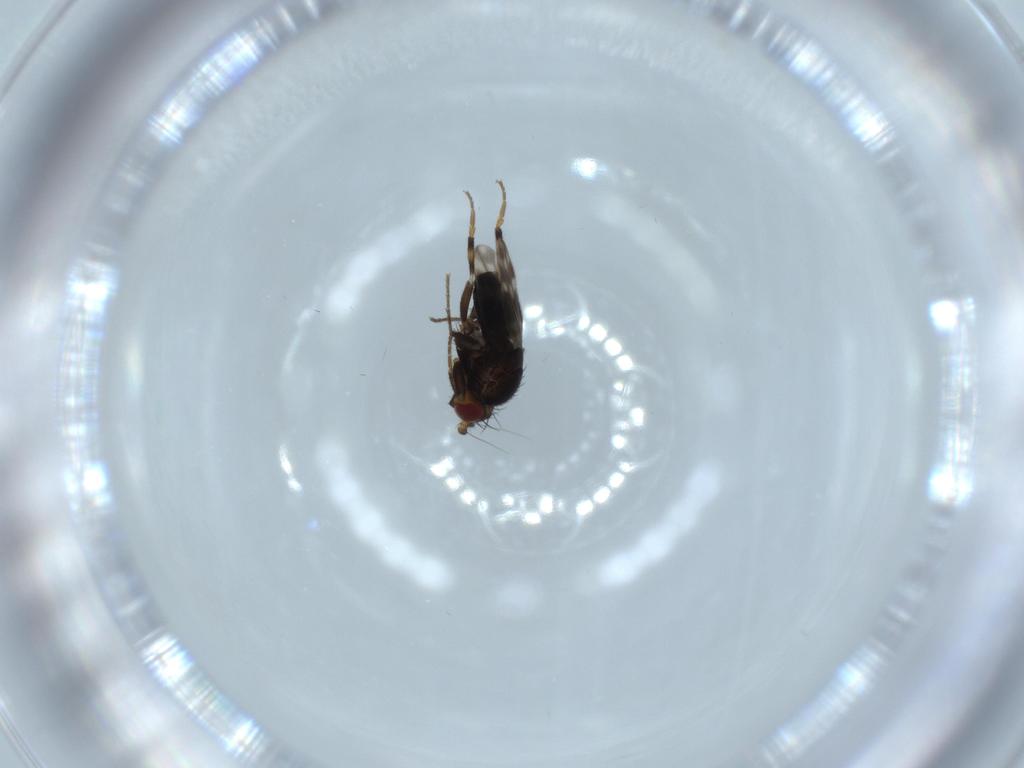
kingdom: Animalia
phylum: Arthropoda
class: Insecta
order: Diptera
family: Sphaeroceridae
